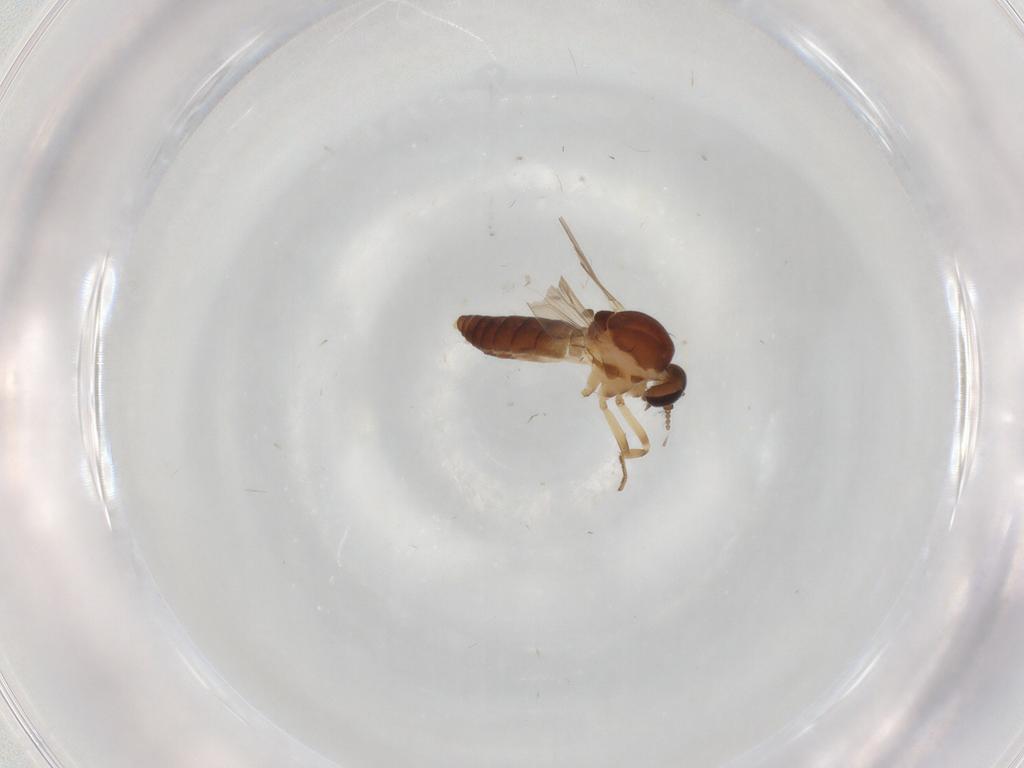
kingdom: Animalia
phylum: Arthropoda
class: Insecta
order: Diptera
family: Ceratopogonidae
